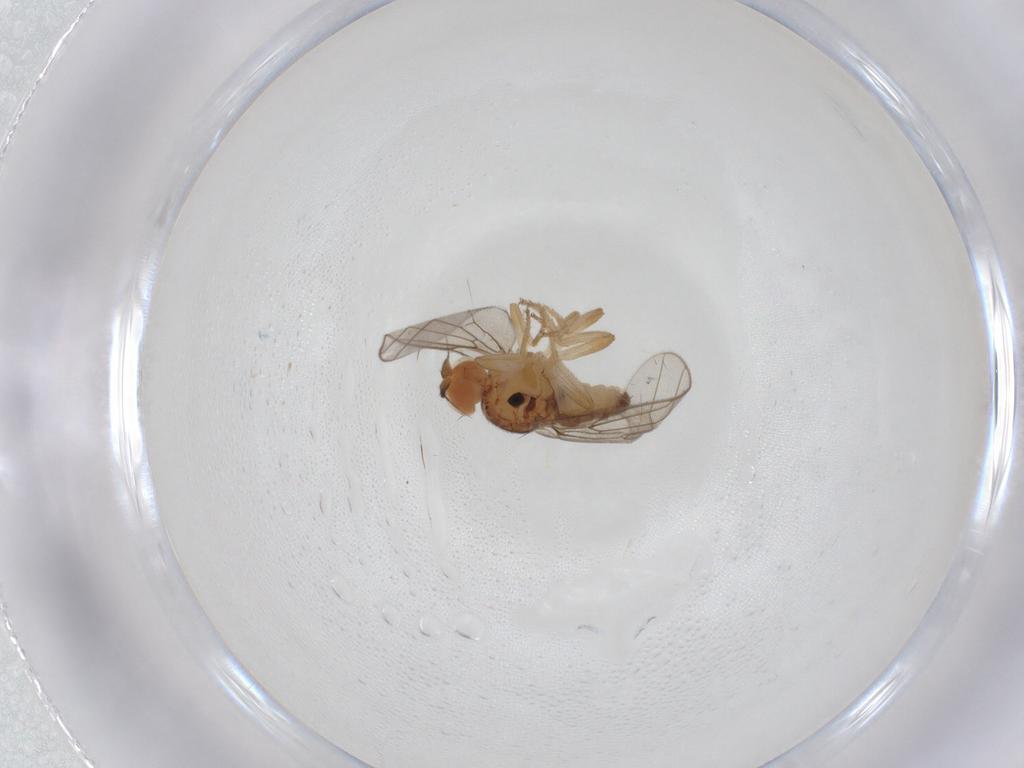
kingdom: Animalia
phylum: Arthropoda
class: Insecta
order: Diptera
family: Chloropidae
